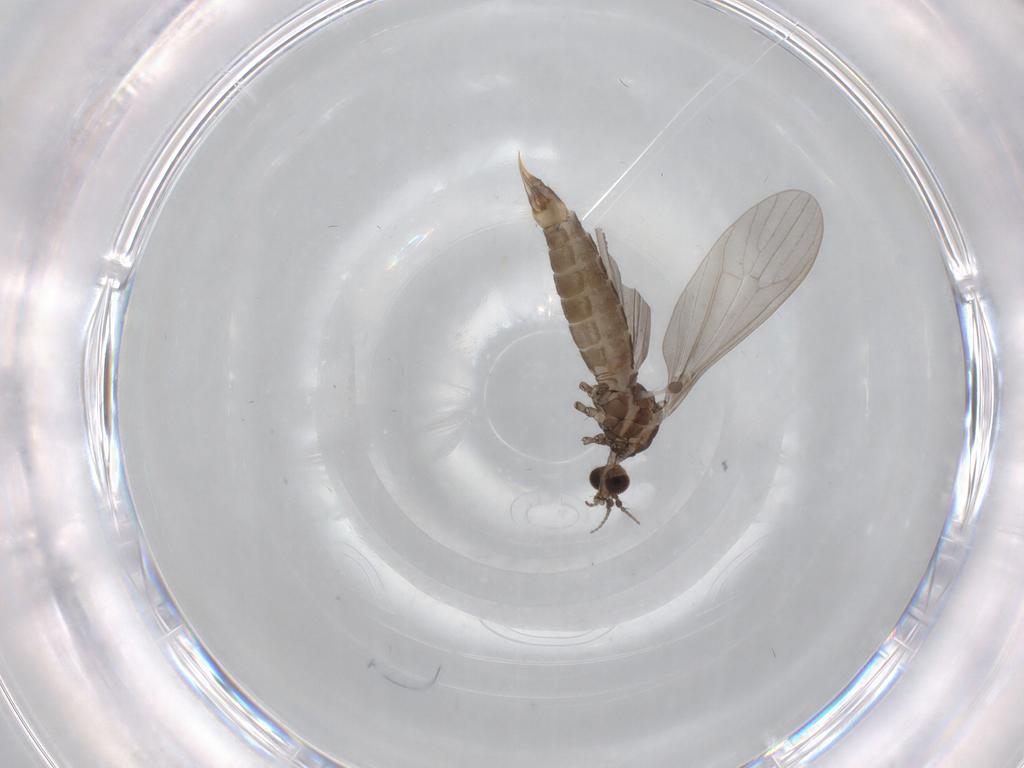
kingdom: Animalia
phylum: Arthropoda
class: Insecta
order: Diptera
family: Limoniidae
